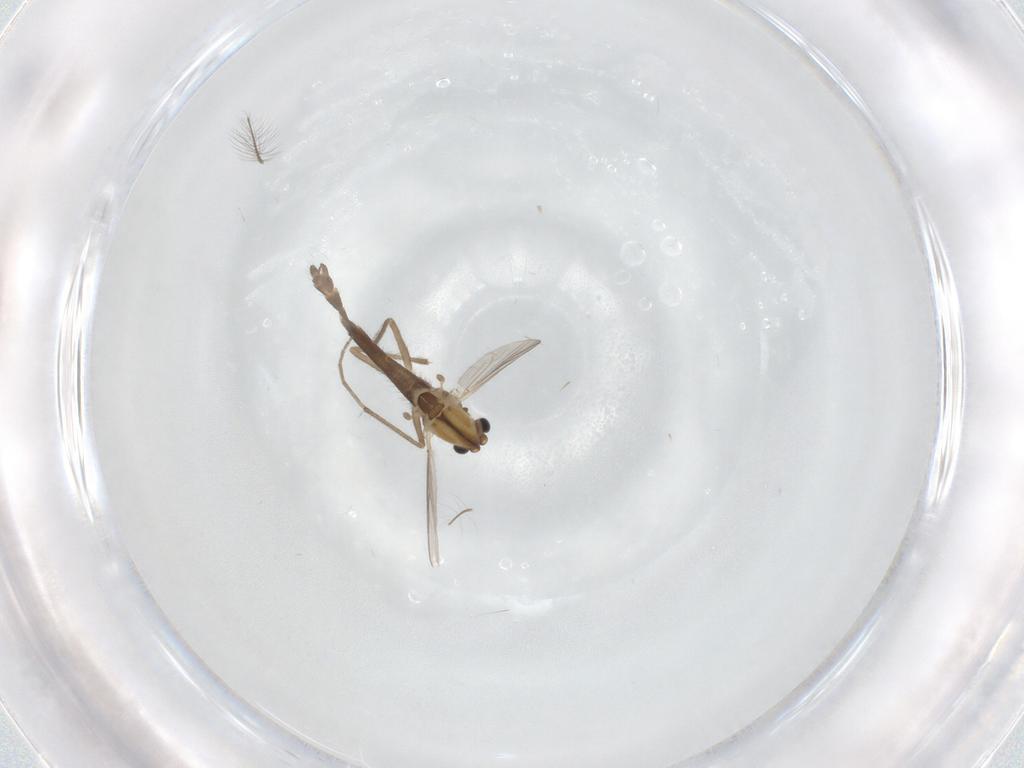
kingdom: Animalia
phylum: Arthropoda
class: Insecta
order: Diptera
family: Chironomidae
